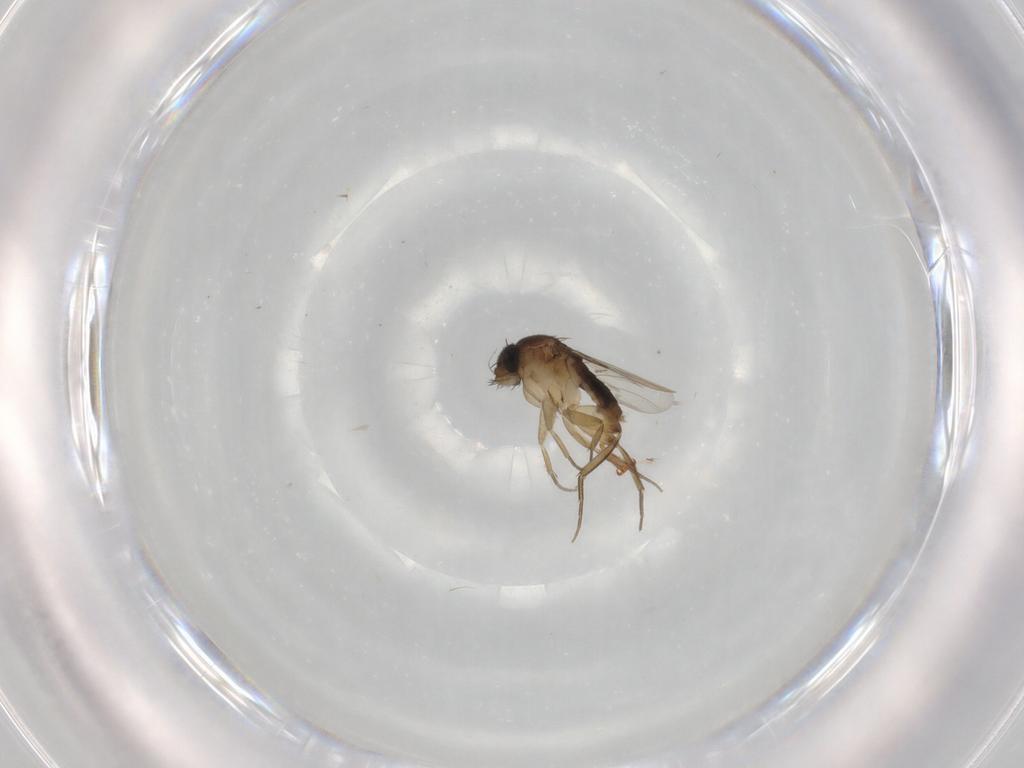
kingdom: Animalia
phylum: Arthropoda
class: Insecta
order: Diptera
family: Phoridae
